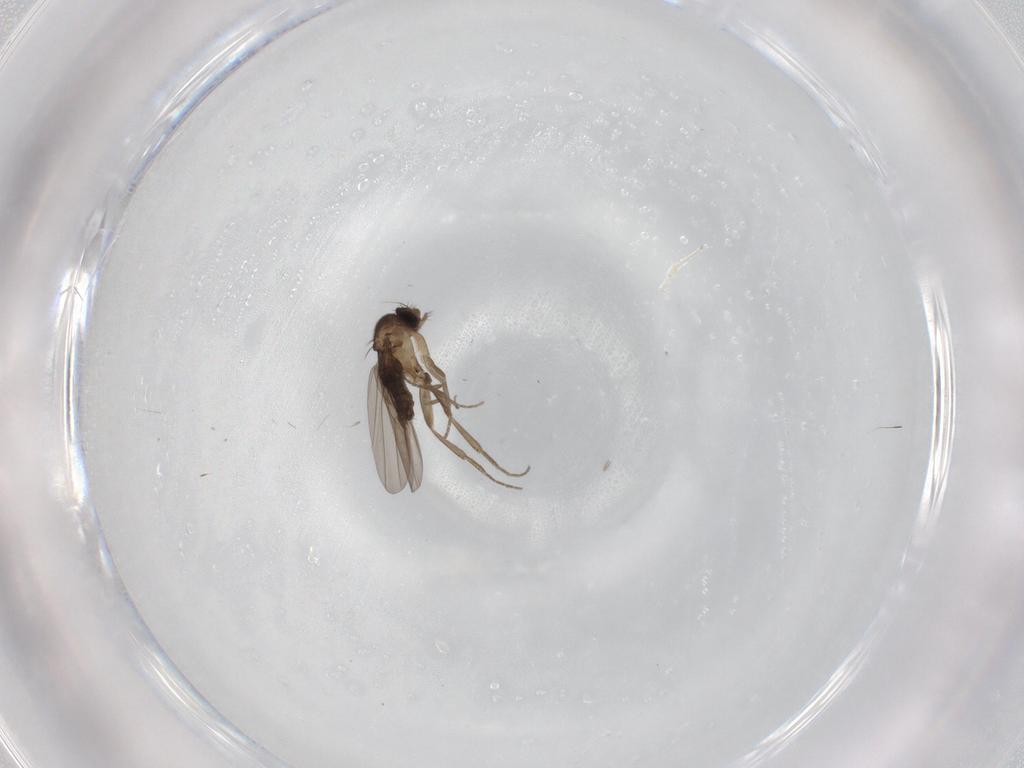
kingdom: Animalia
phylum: Arthropoda
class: Insecta
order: Diptera
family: Phoridae
